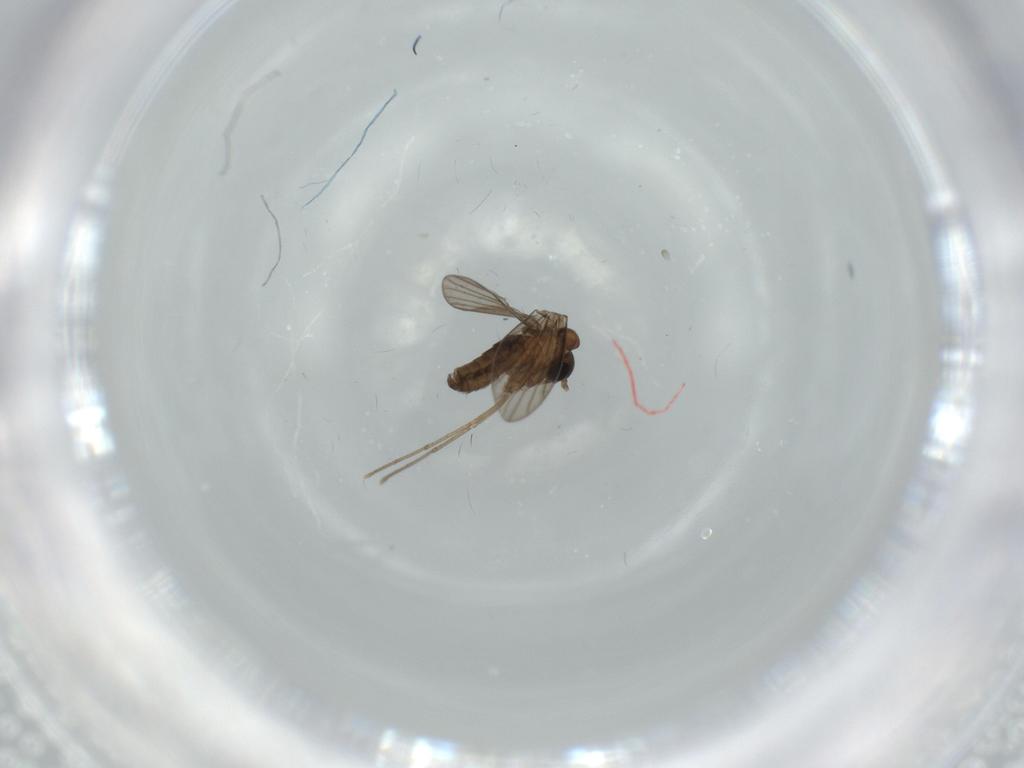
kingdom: Animalia
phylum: Arthropoda
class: Insecta
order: Diptera
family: Psychodidae
